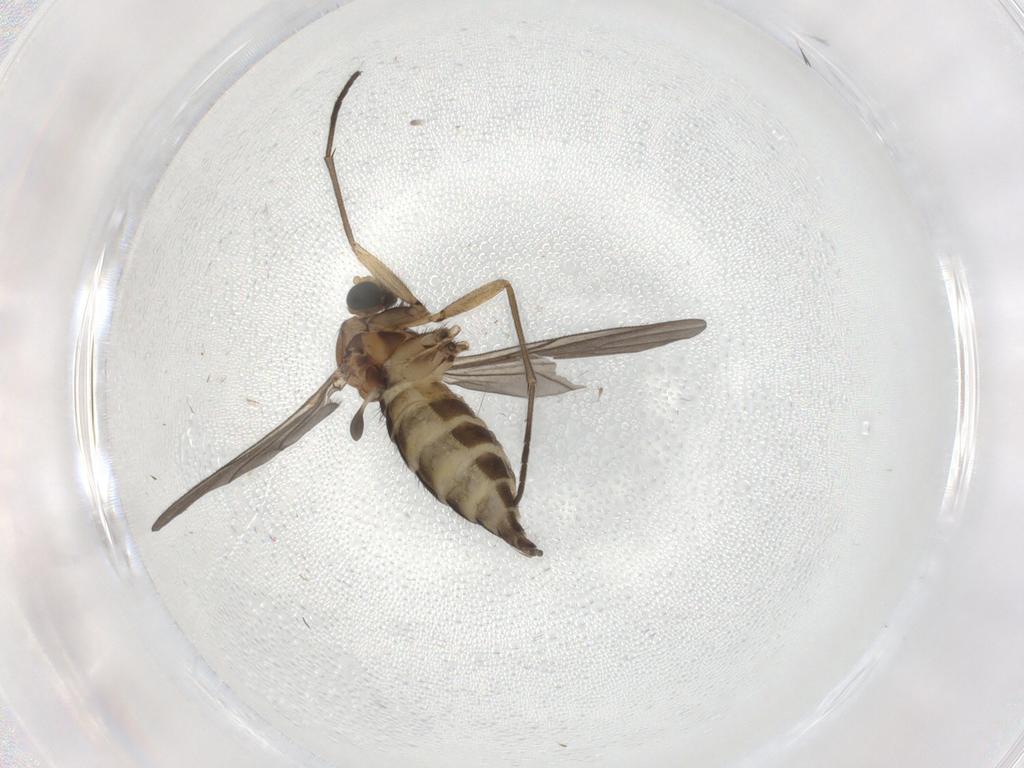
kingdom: Animalia
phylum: Arthropoda
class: Insecta
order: Diptera
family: Sciaridae
